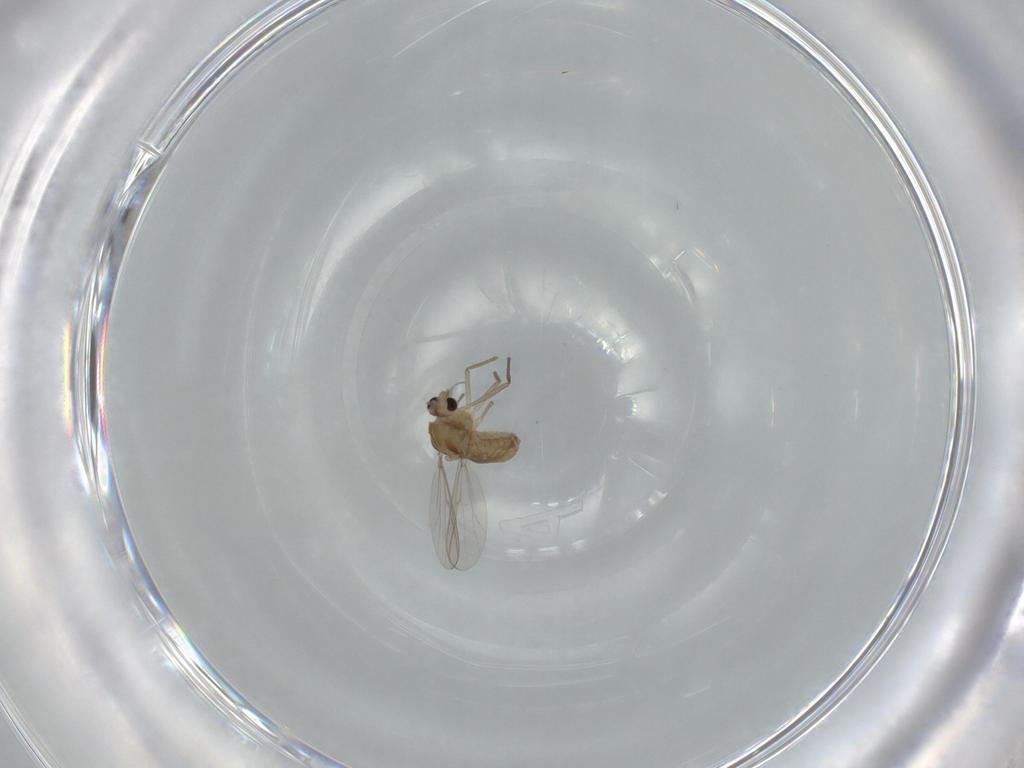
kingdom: Animalia
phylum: Arthropoda
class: Insecta
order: Diptera
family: Chironomidae
